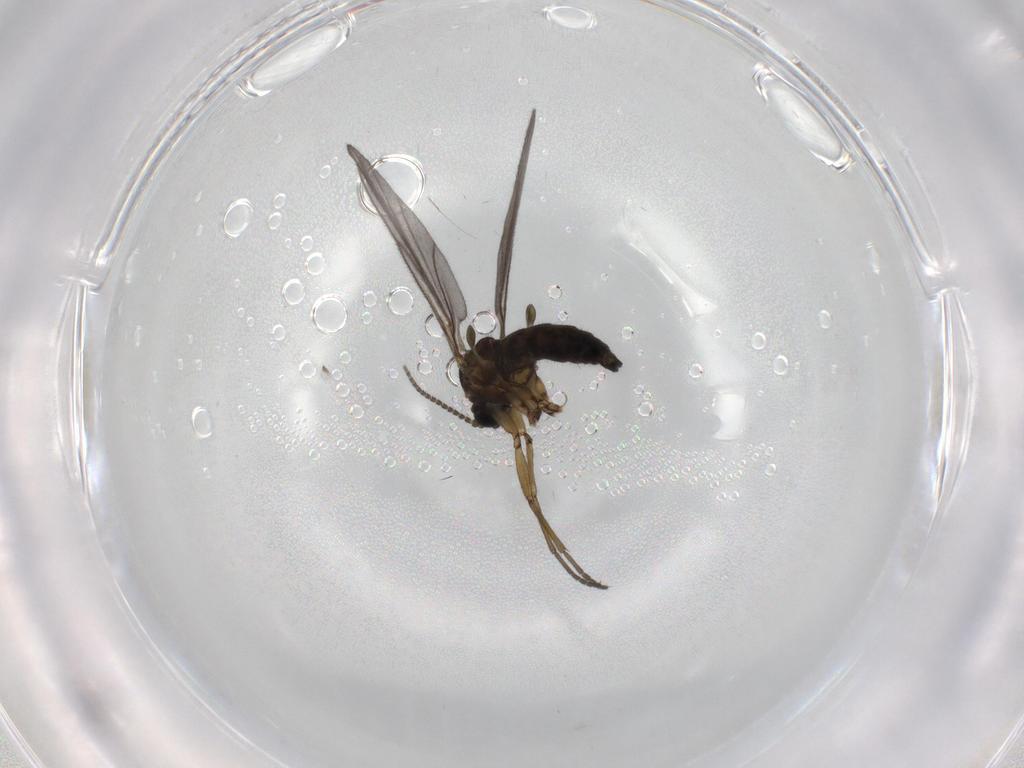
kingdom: Animalia
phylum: Arthropoda
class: Insecta
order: Diptera
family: Sciaridae
